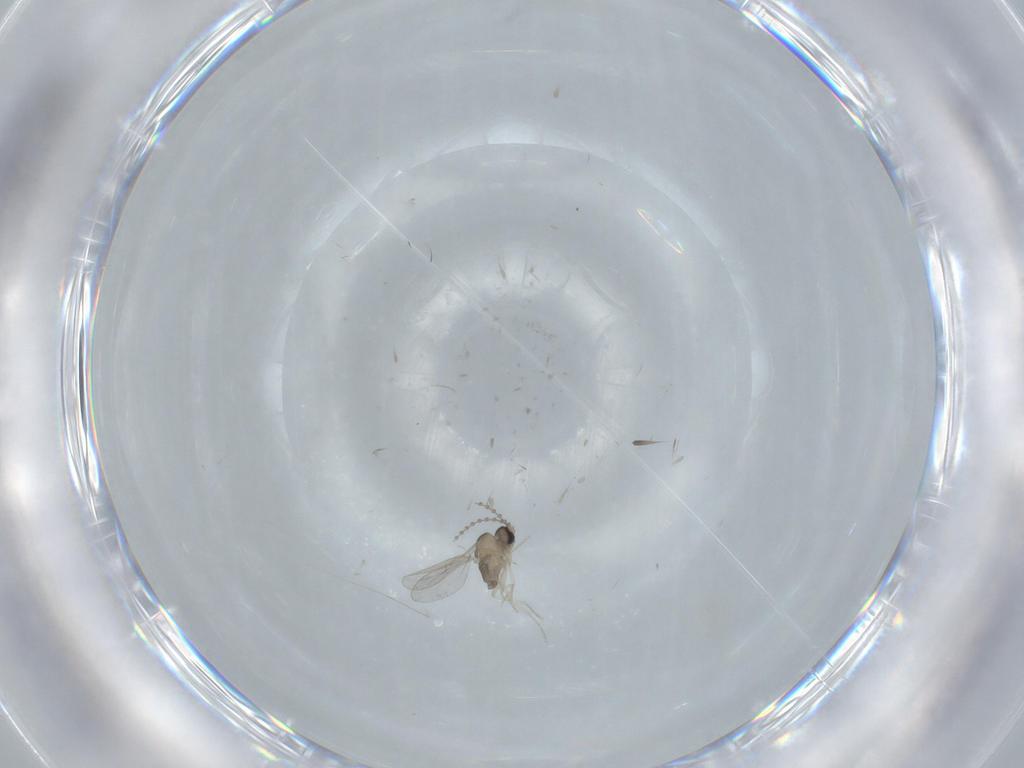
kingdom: Animalia
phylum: Arthropoda
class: Insecta
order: Diptera
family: Cecidomyiidae
